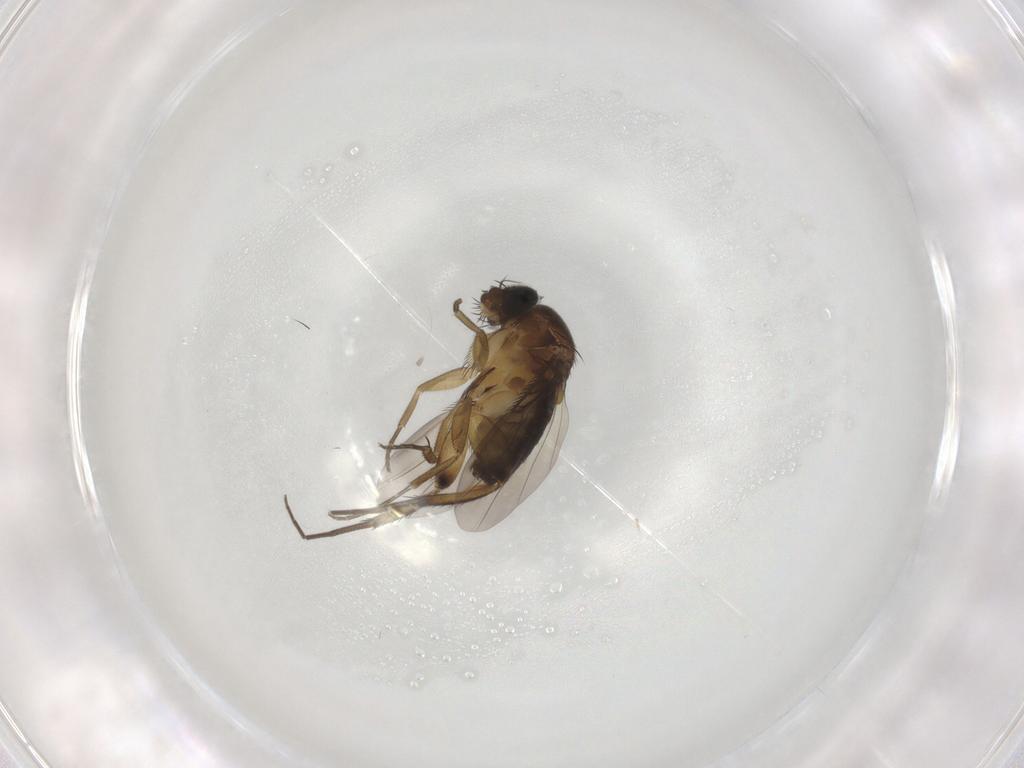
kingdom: Animalia
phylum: Arthropoda
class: Insecta
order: Diptera
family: Phoridae
